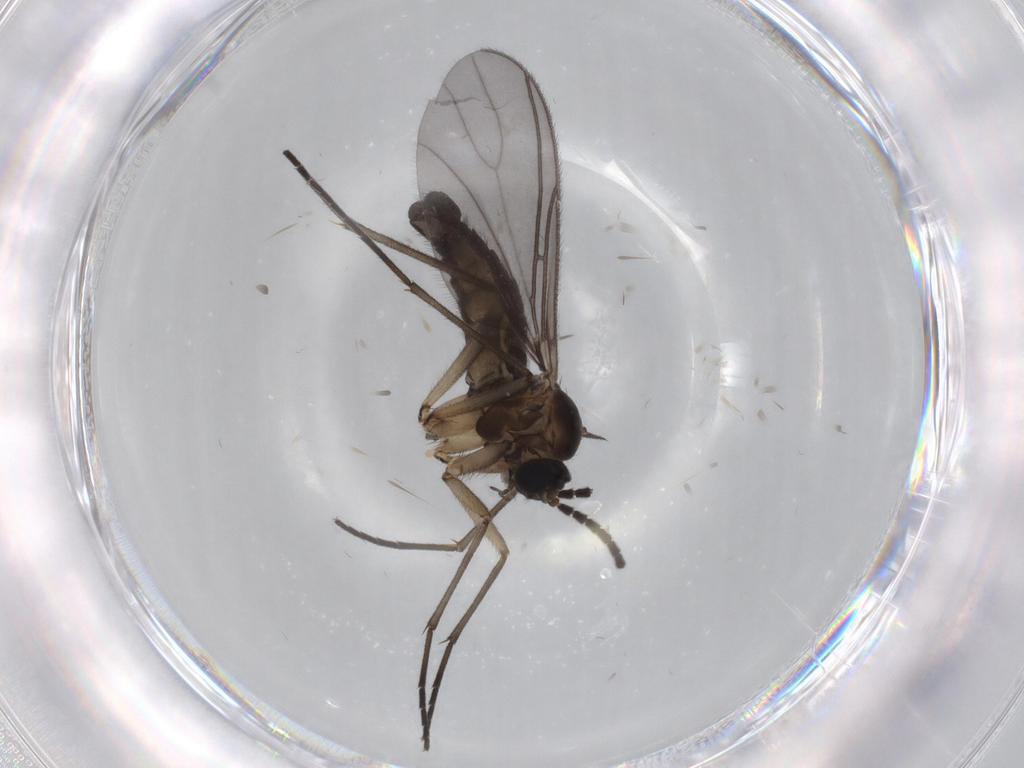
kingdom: Animalia
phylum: Arthropoda
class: Insecta
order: Diptera
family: Sciaridae
